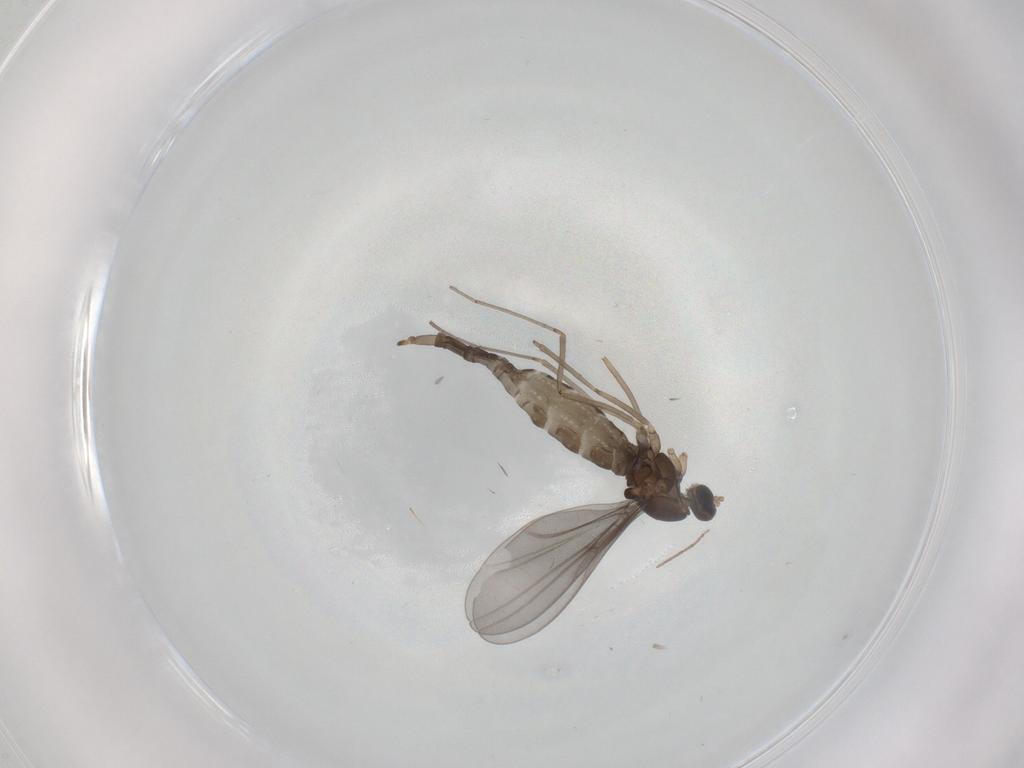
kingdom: Animalia
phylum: Arthropoda
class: Insecta
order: Diptera
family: Cecidomyiidae
